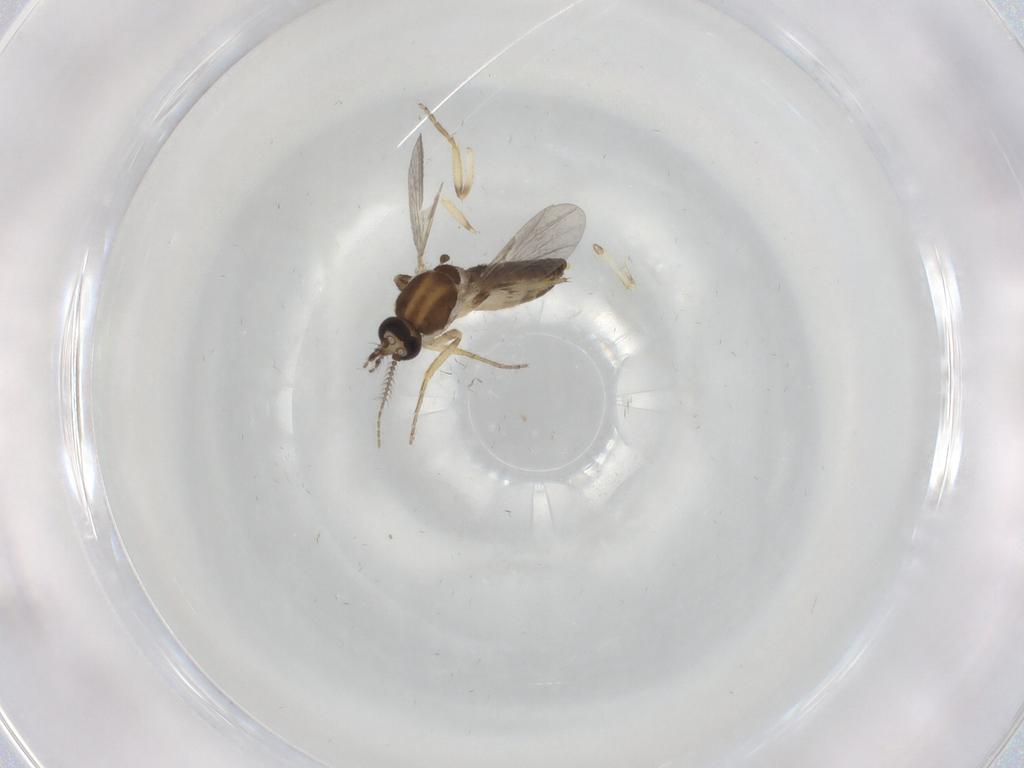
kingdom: Animalia
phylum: Arthropoda
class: Insecta
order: Diptera
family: Ceratopogonidae
